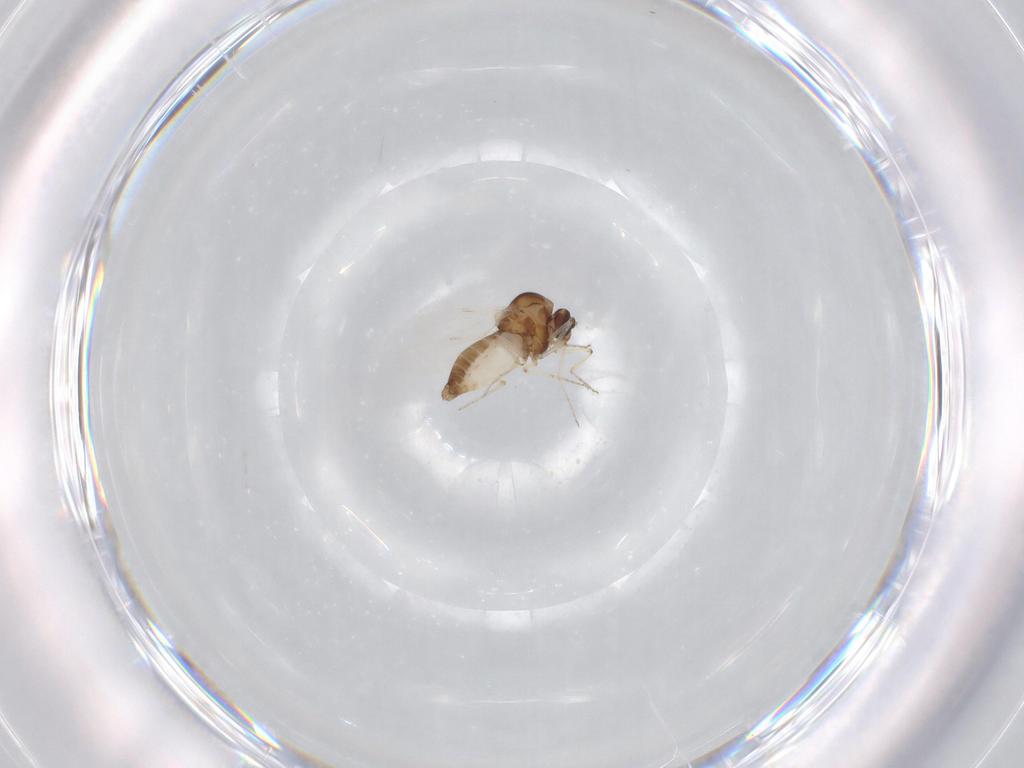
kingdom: Animalia
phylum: Arthropoda
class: Insecta
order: Diptera
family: Ceratopogonidae
